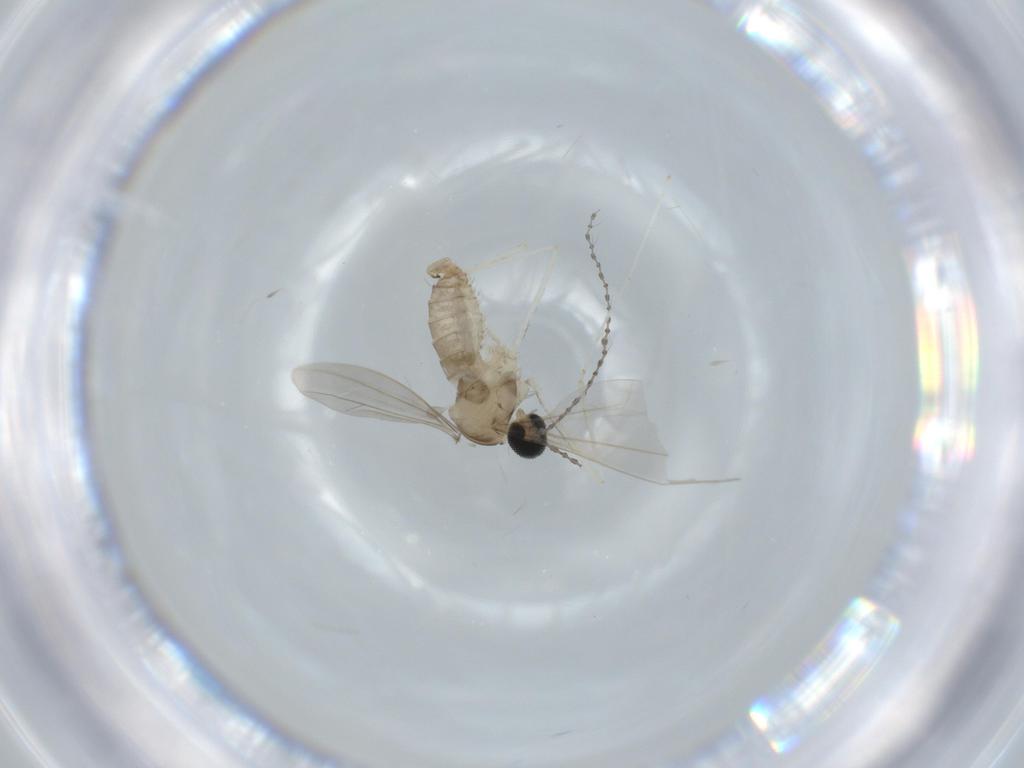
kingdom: Animalia
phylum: Arthropoda
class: Insecta
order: Diptera
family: Cecidomyiidae
